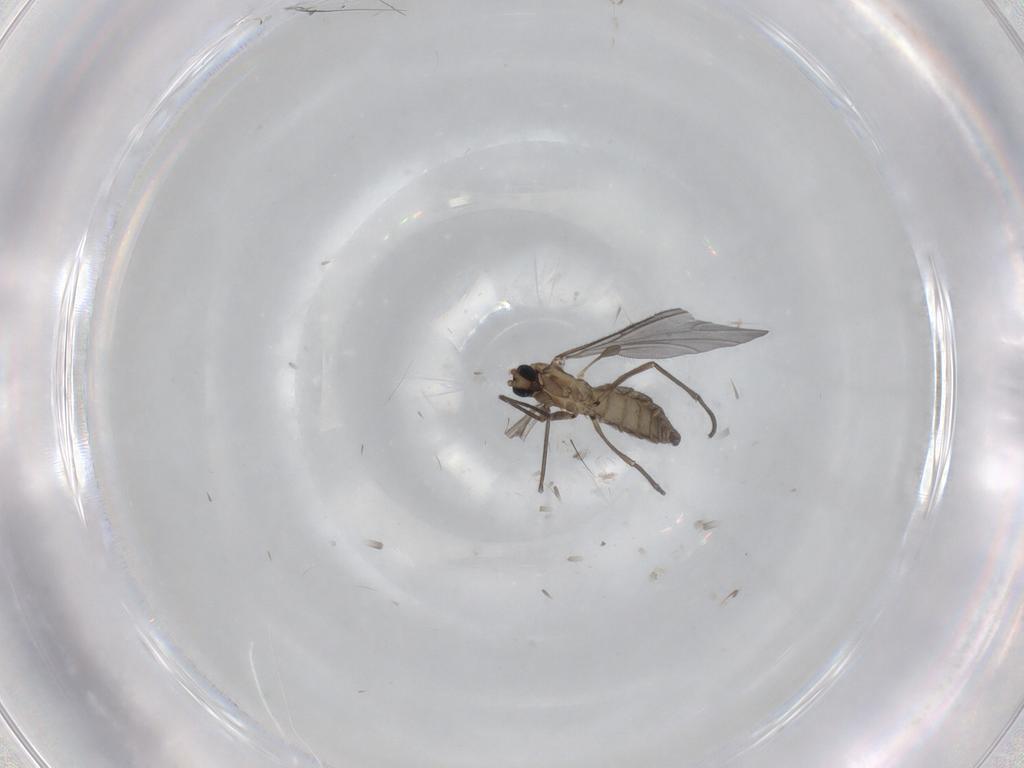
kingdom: Animalia
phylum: Arthropoda
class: Insecta
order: Diptera
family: Sciaridae
